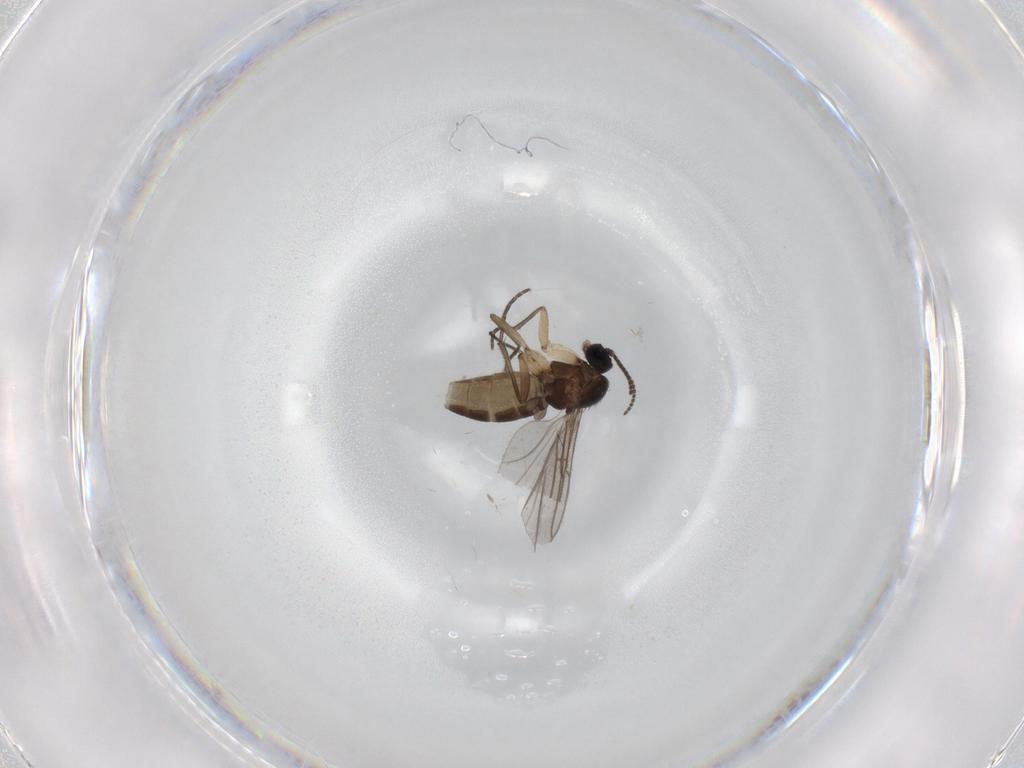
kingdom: Animalia
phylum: Arthropoda
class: Insecta
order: Diptera
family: Sciaridae
